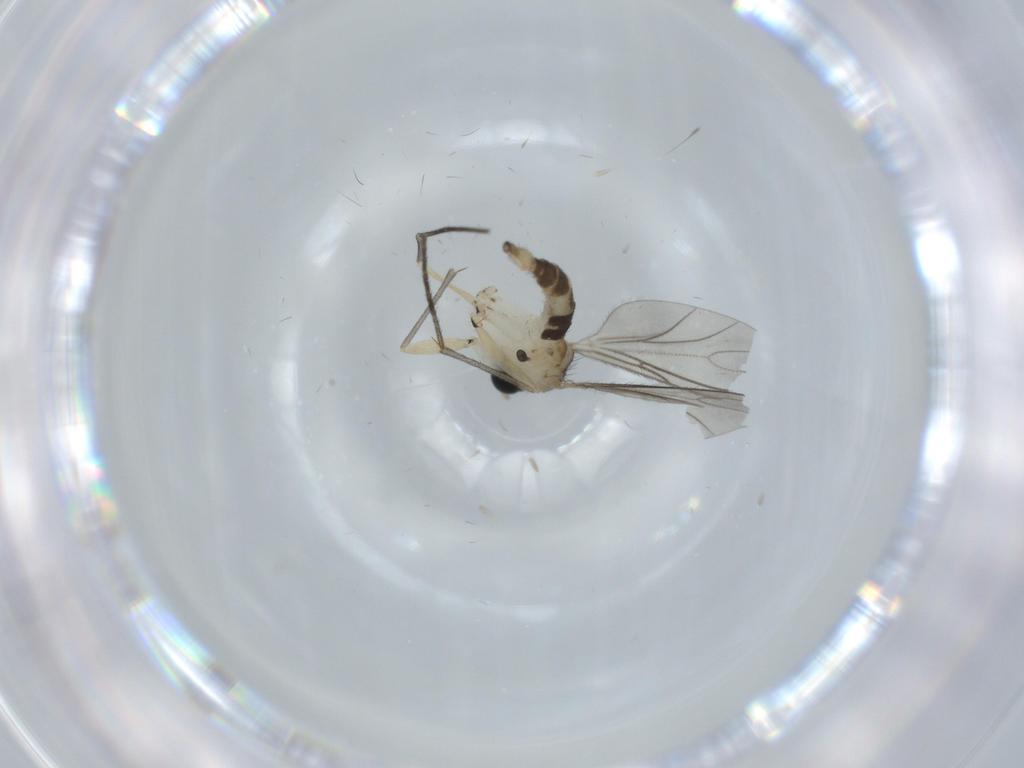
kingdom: Animalia
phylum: Arthropoda
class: Insecta
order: Diptera
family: Sciaridae
